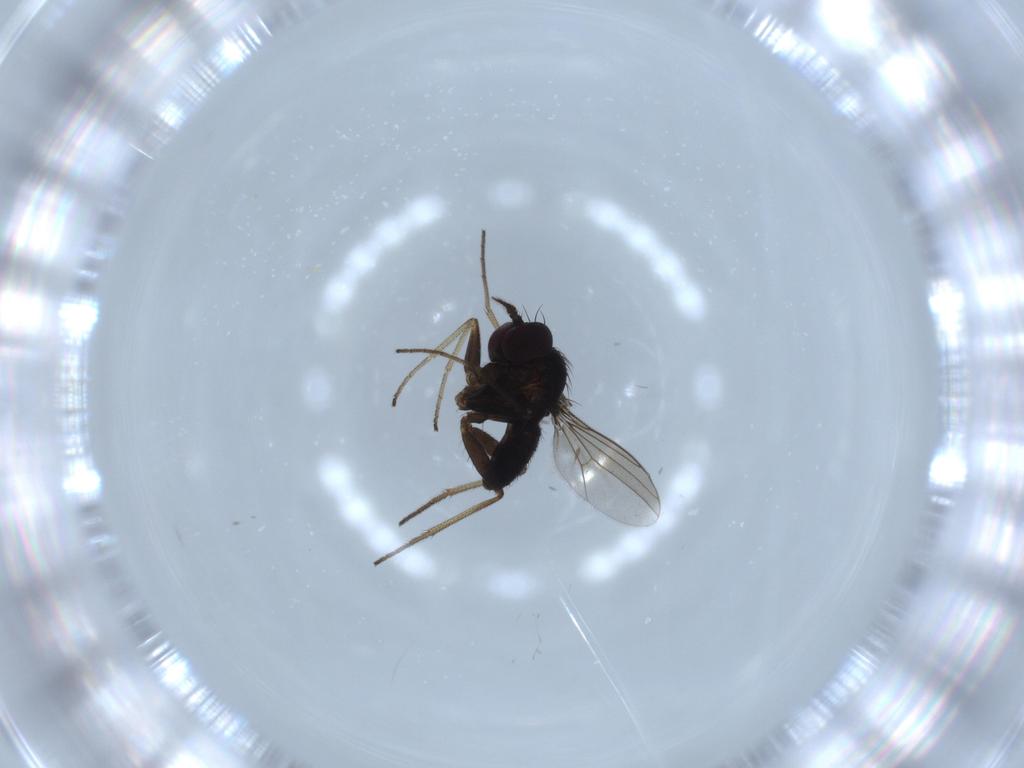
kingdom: Animalia
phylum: Arthropoda
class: Insecta
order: Diptera
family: Dolichopodidae
